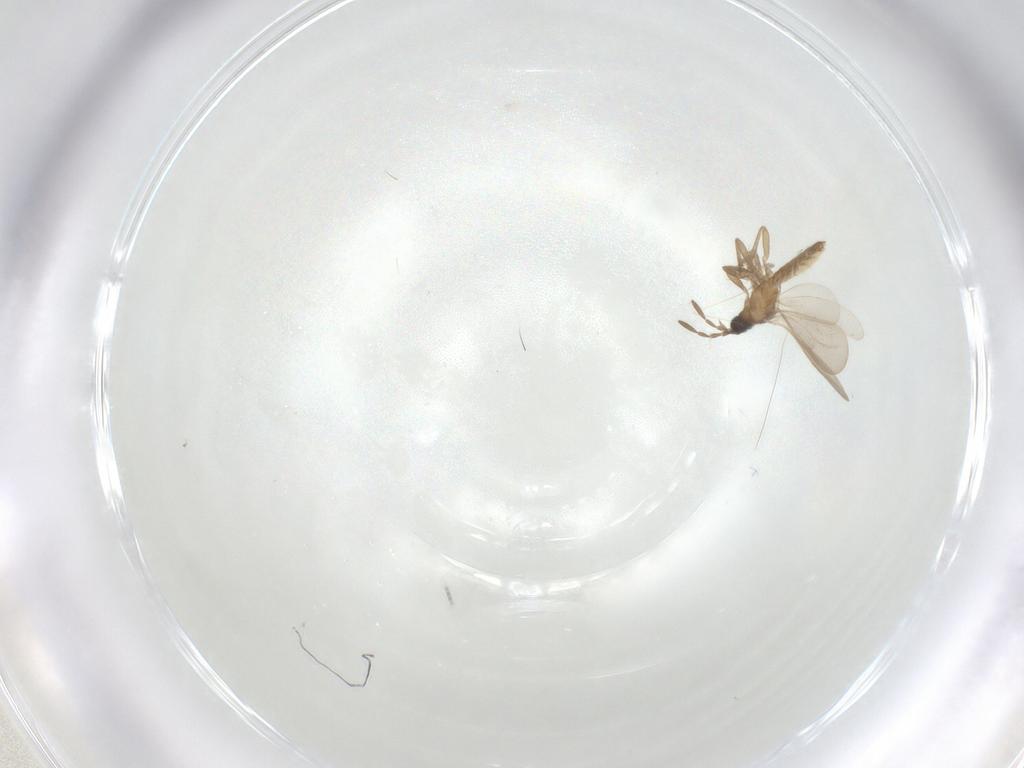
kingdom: Animalia
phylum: Arthropoda
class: Insecta
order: Hemiptera
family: Enicocephalidae
